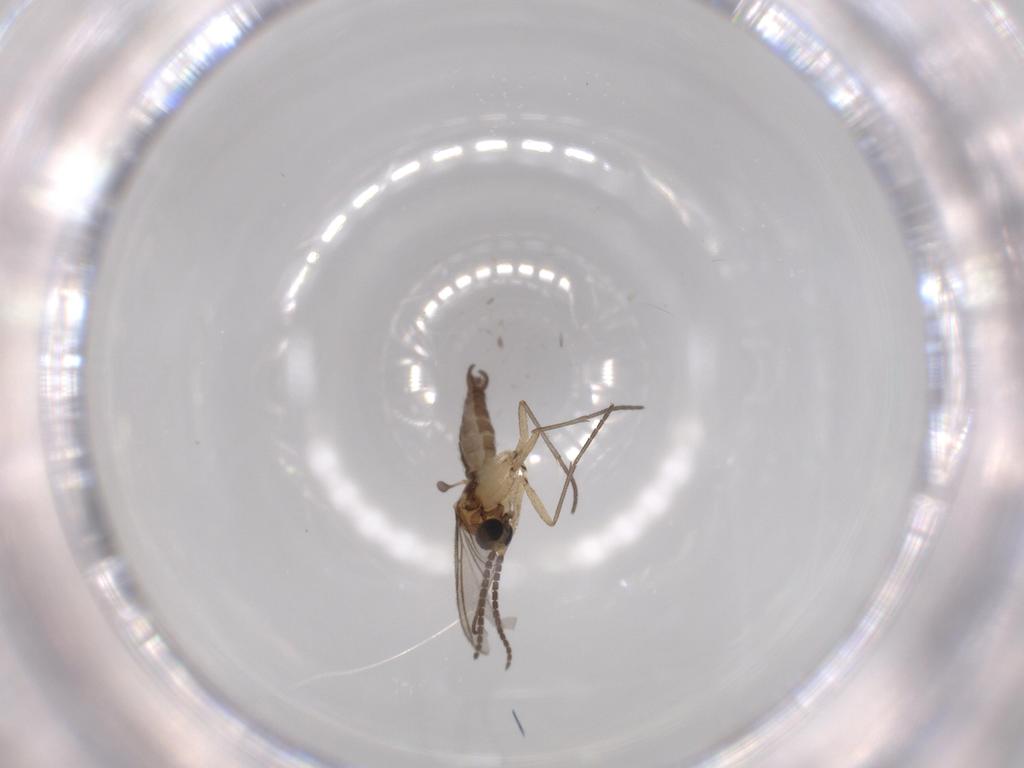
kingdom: Animalia
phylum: Arthropoda
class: Insecta
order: Diptera
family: Sciaridae
